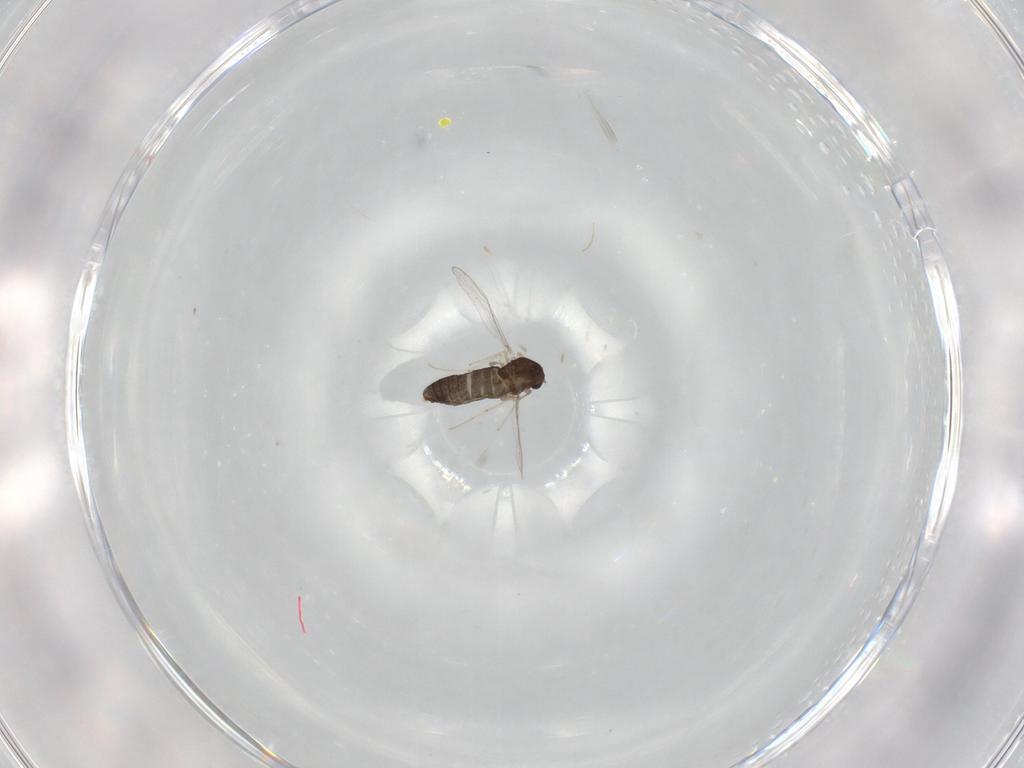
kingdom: Animalia
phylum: Arthropoda
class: Insecta
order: Diptera
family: Chironomidae
